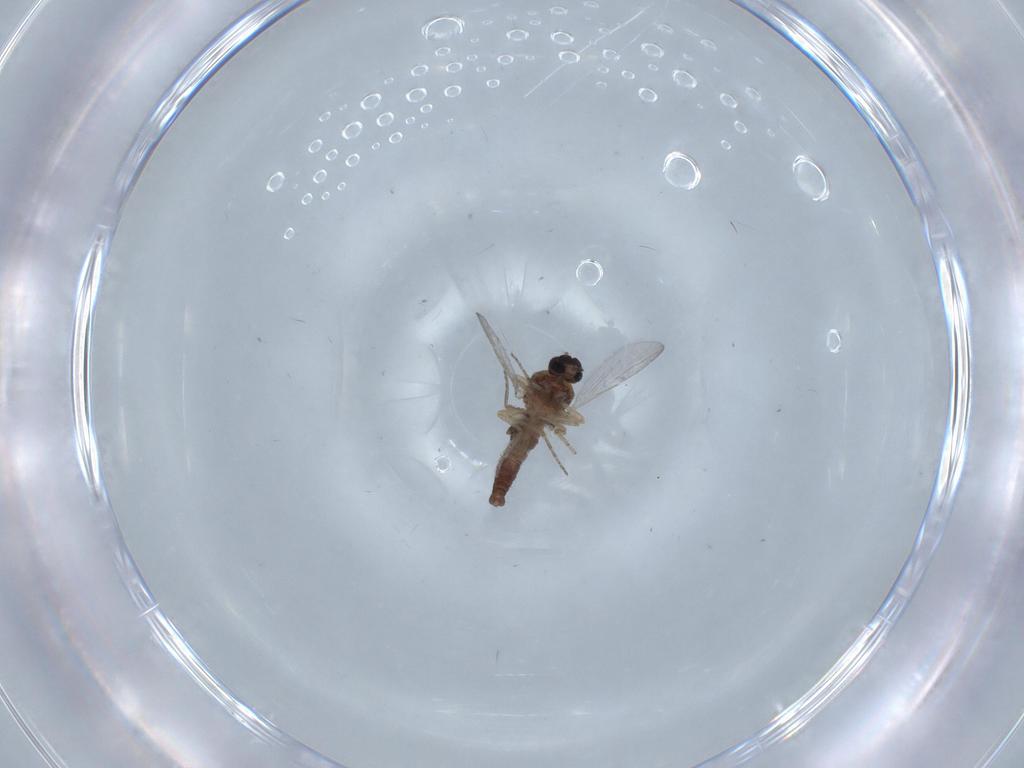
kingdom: Animalia
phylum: Arthropoda
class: Insecta
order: Diptera
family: Ceratopogonidae
